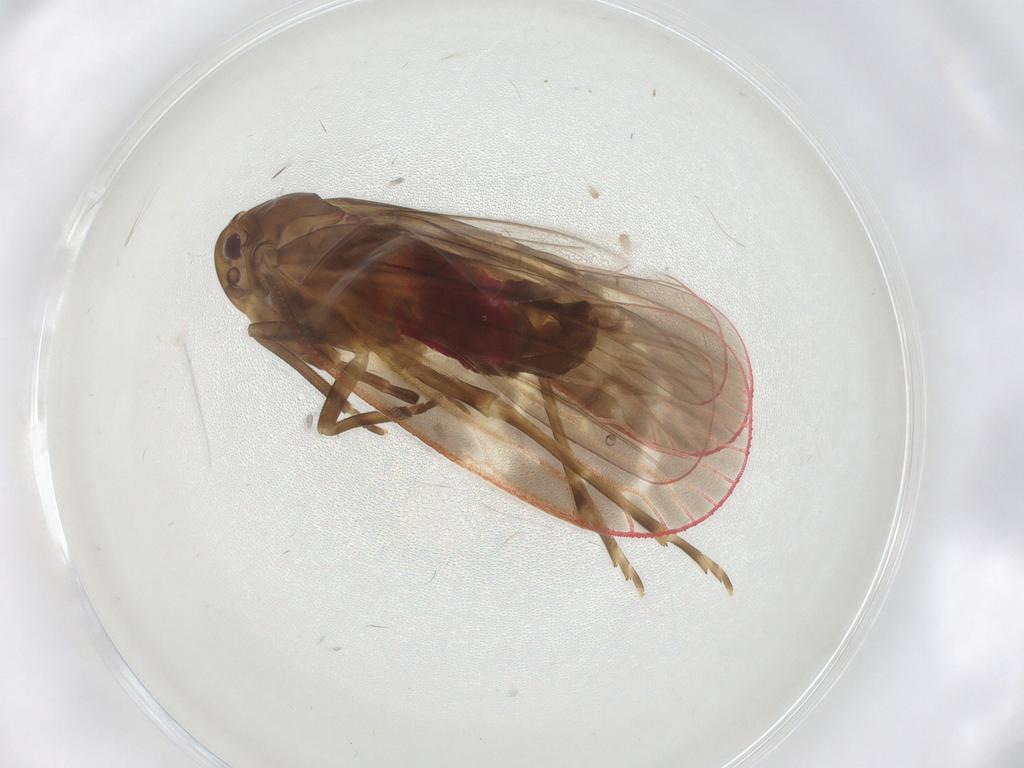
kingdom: Animalia
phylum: Arthropoda
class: Insecta
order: Hemiptera
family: Achilidae
